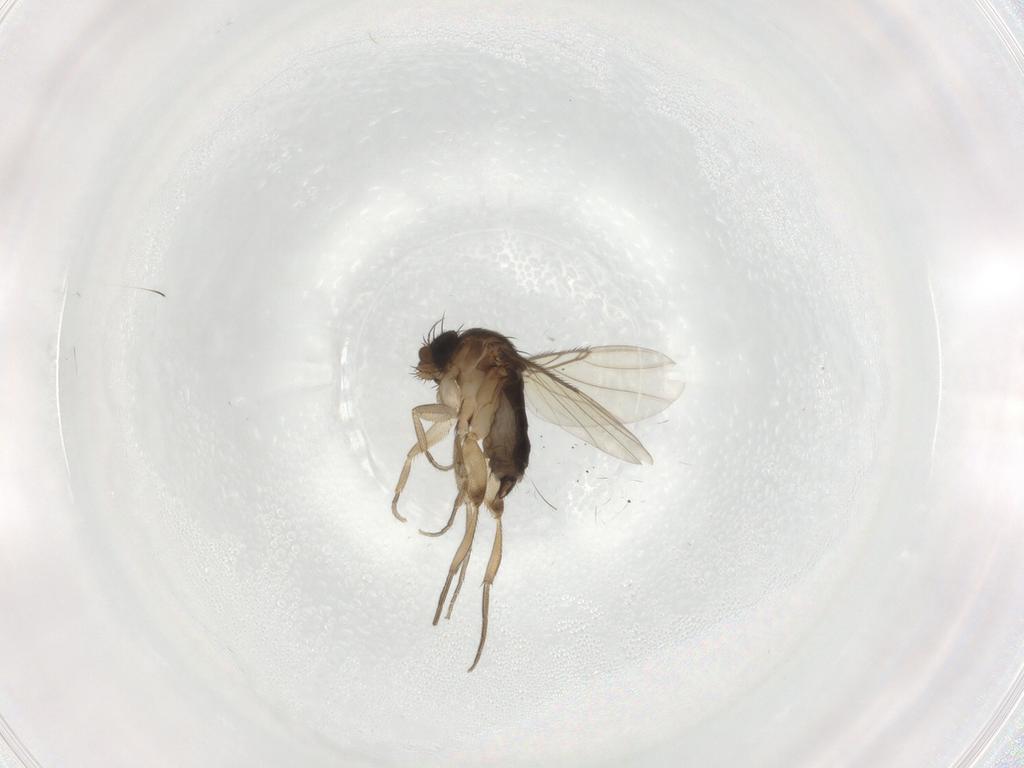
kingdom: Animalia
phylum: Arthropoda
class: Insecta
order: Diptera
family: Phoridae
